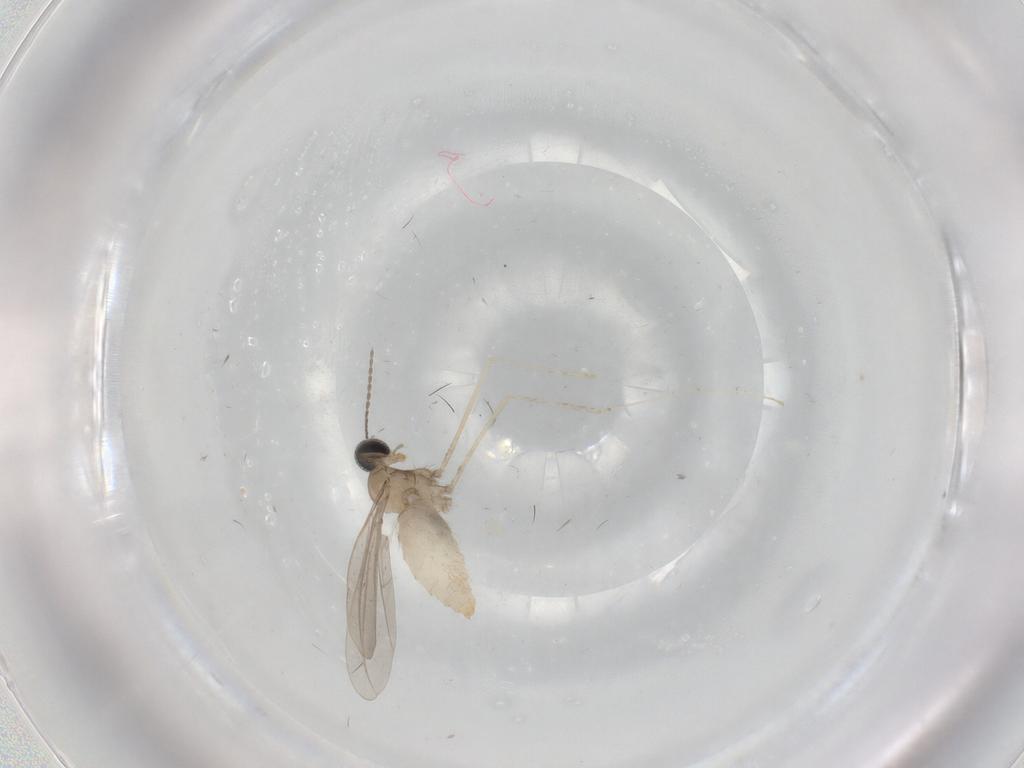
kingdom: Animalia
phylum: Arthropoda
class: Insecta
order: Diptera
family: Cecidomyiidae
